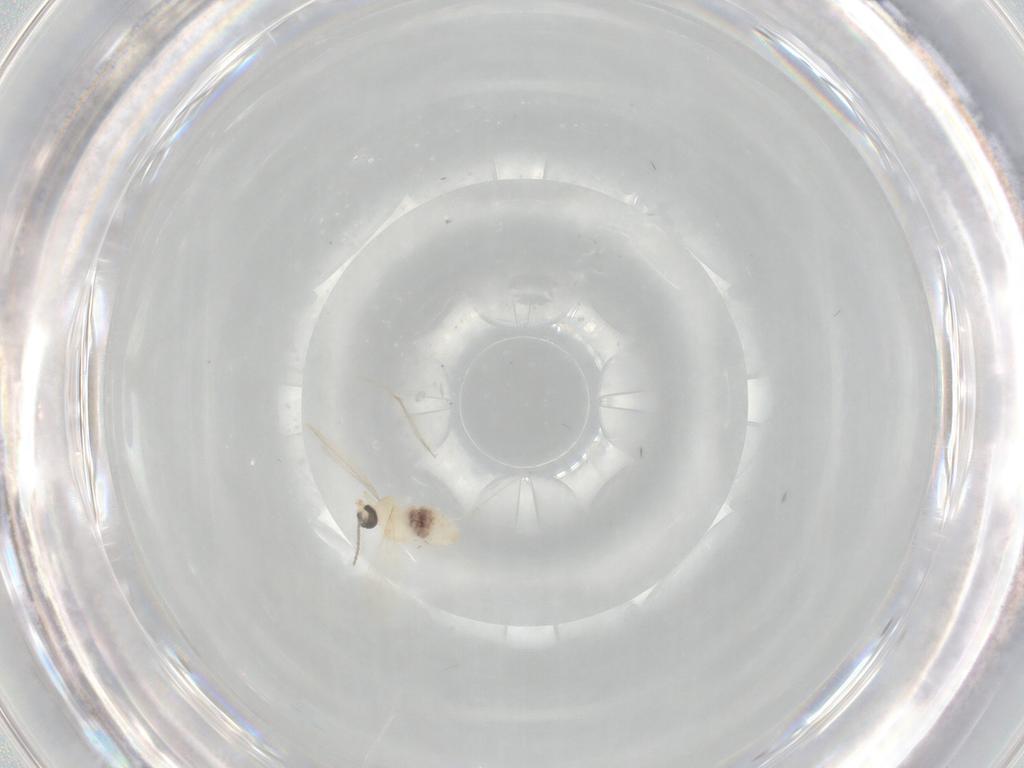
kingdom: Animalia
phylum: Arthropoda
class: Insecta
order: Diptera
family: Cecidomyiidae
